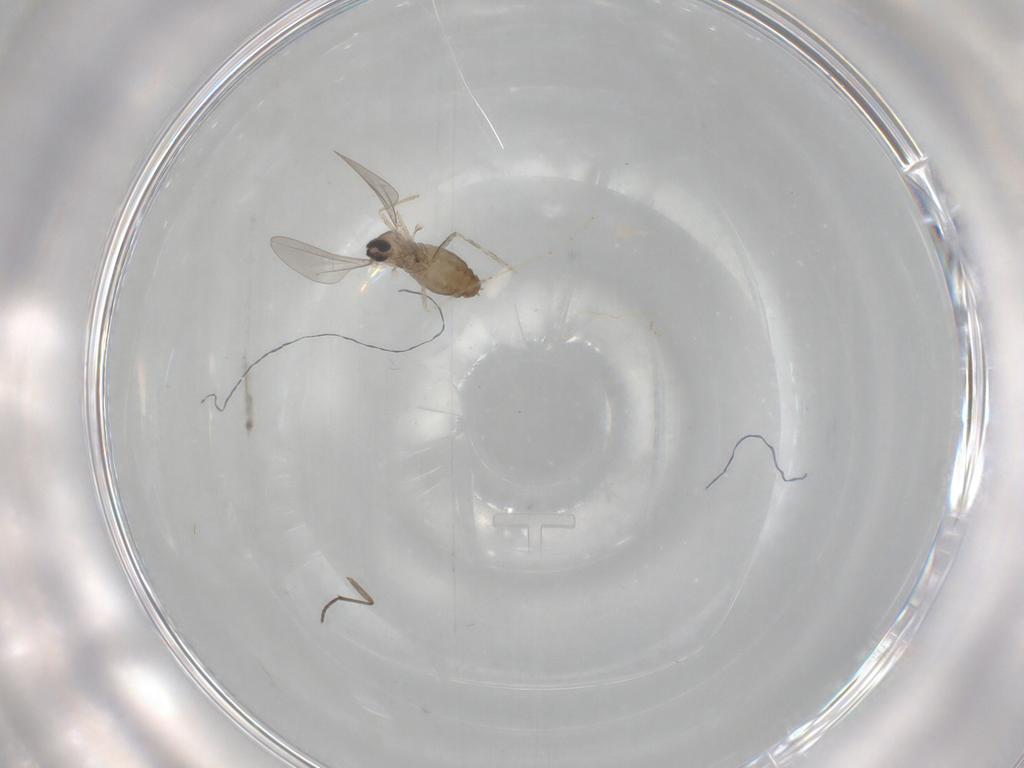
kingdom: Animalia
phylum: Arthropoda
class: Insecta
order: Diptera
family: Sciaridae
